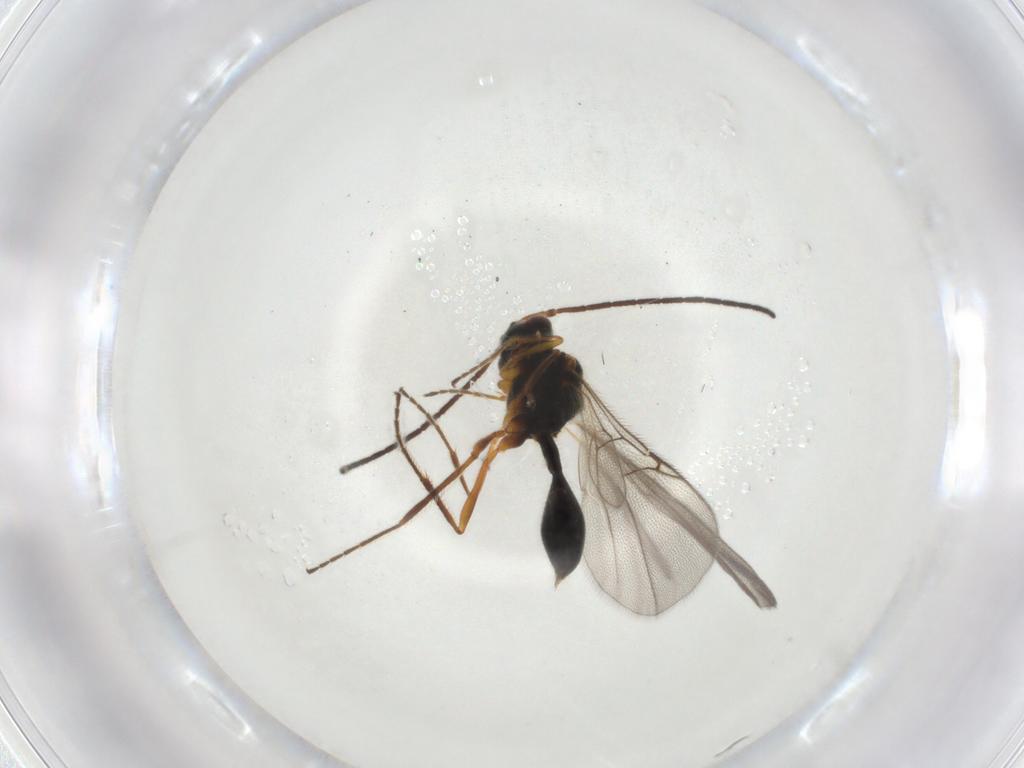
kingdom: Animalia
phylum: Arthropoda
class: Insecta
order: Hymenoptera
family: Diapriidae
